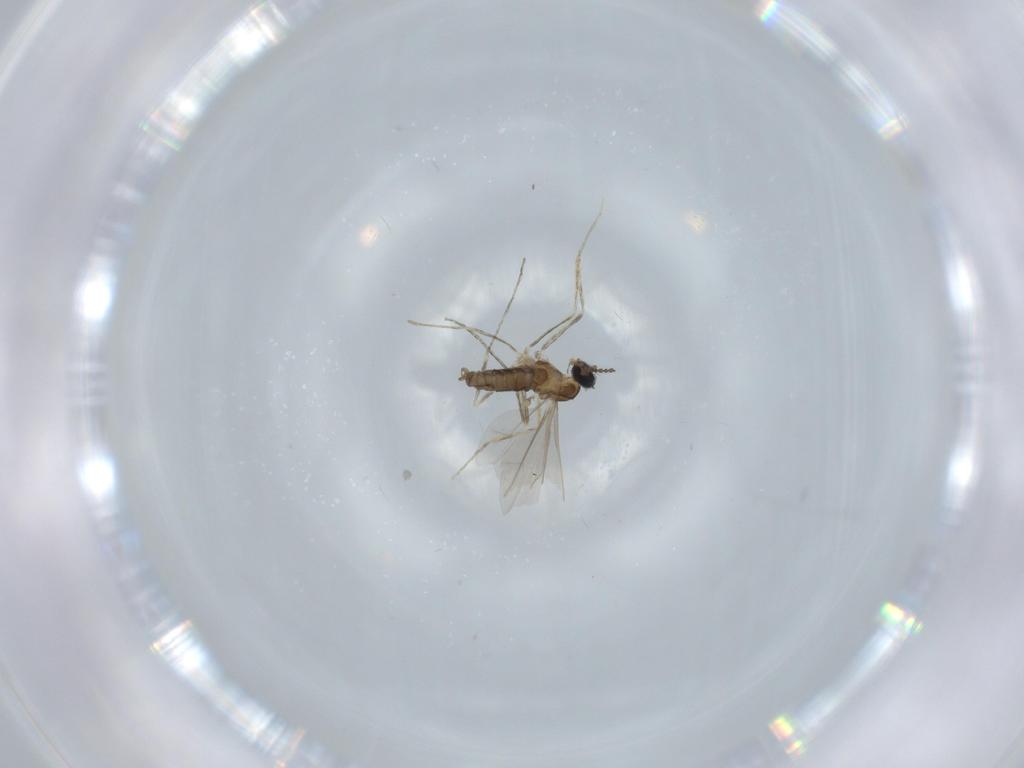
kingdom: Animalia
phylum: Arthropoda
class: Insecta
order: Diptera
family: Cecidomyiidae
